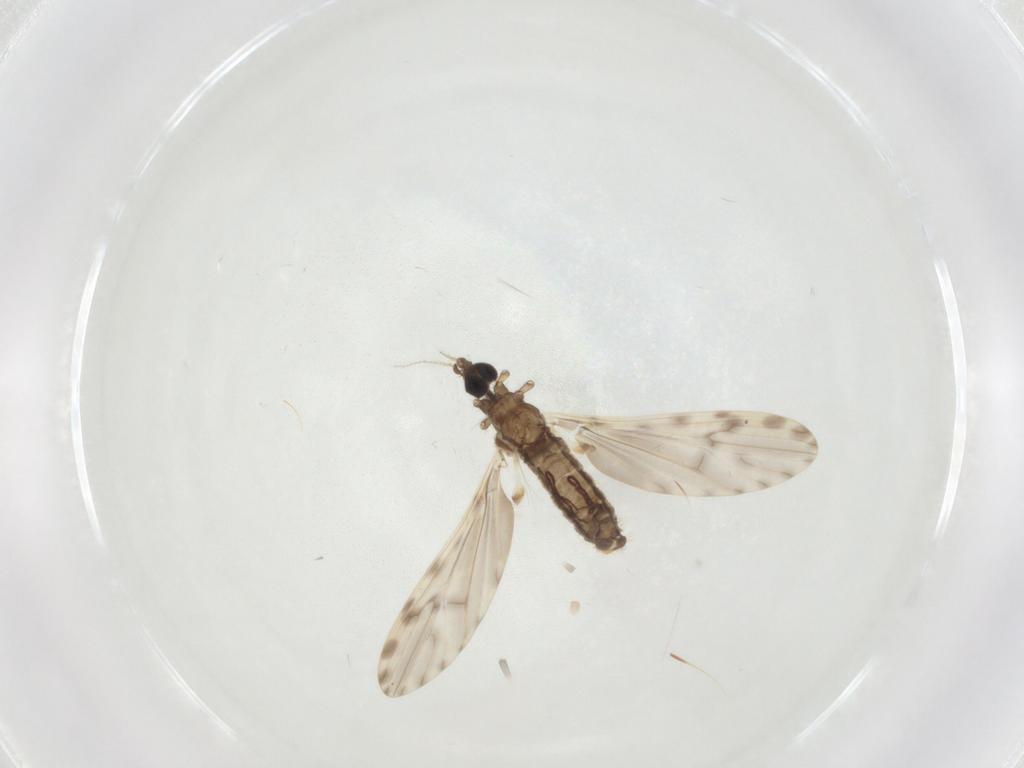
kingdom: Animalia
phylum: Arthropoda
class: Insecta
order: Diptera
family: Limoniidae
